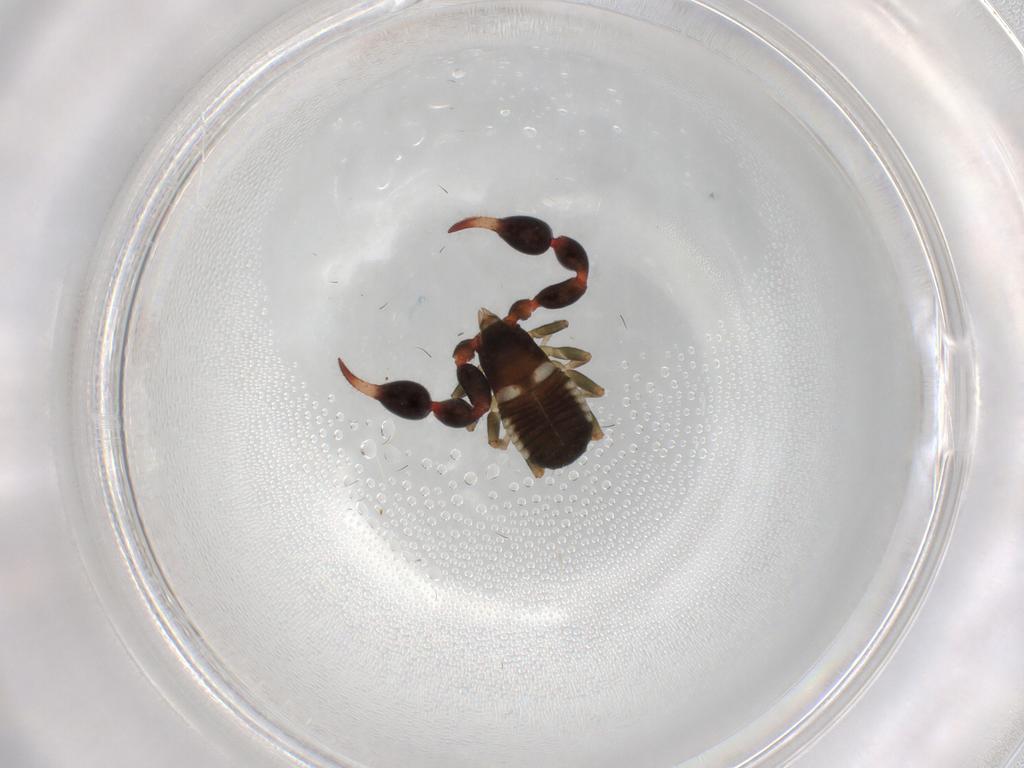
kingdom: Animalia
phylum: Arthropoda
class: Arachnida
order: Pseudoscorpiones
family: Chernetidae
